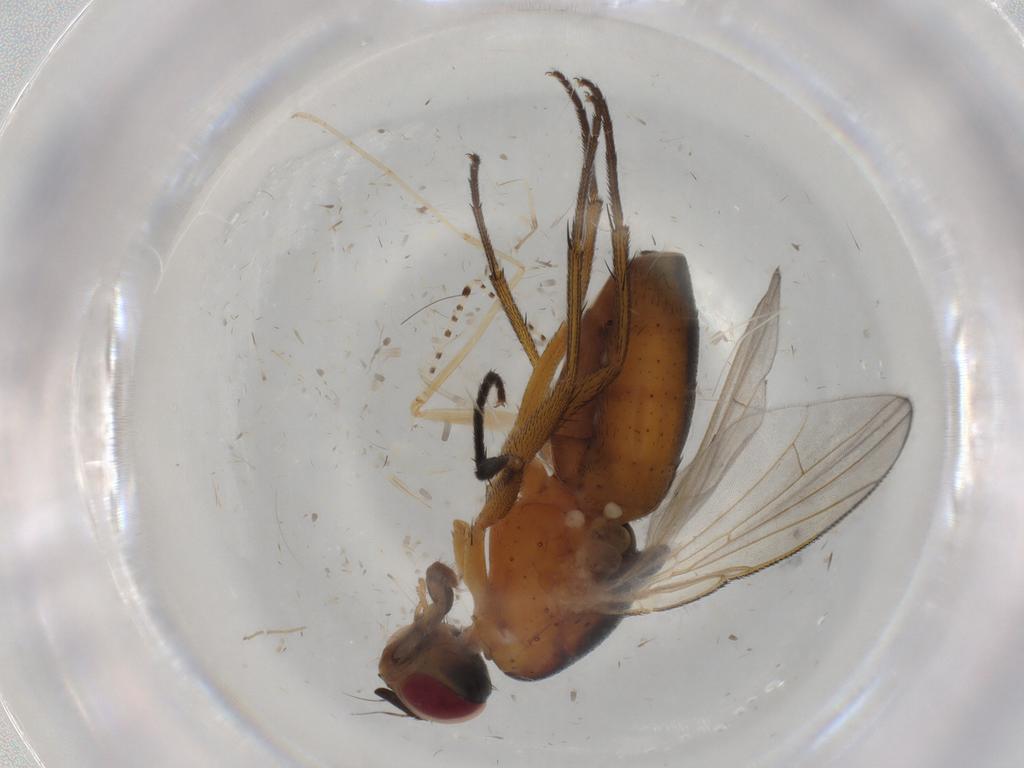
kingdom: Animalia
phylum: Arthropoda
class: Insecta
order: Diptera
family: Muscidae
